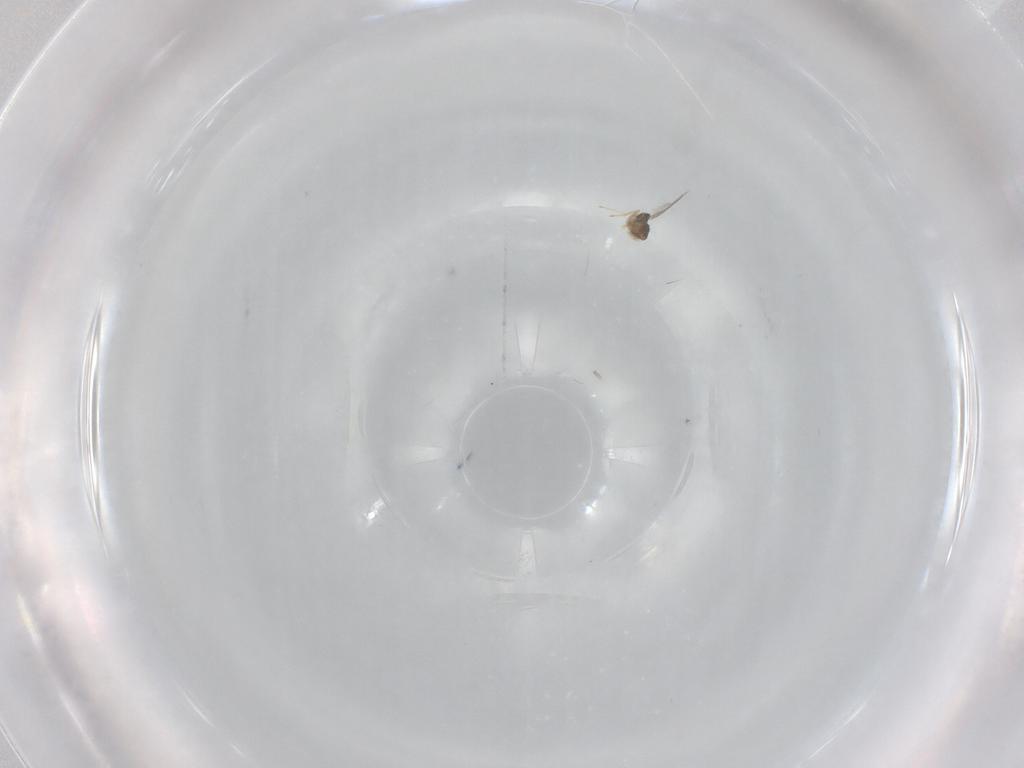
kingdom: Animalia
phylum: Arthropoda
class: Insecta
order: Hymenoptera
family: Eulophidae
